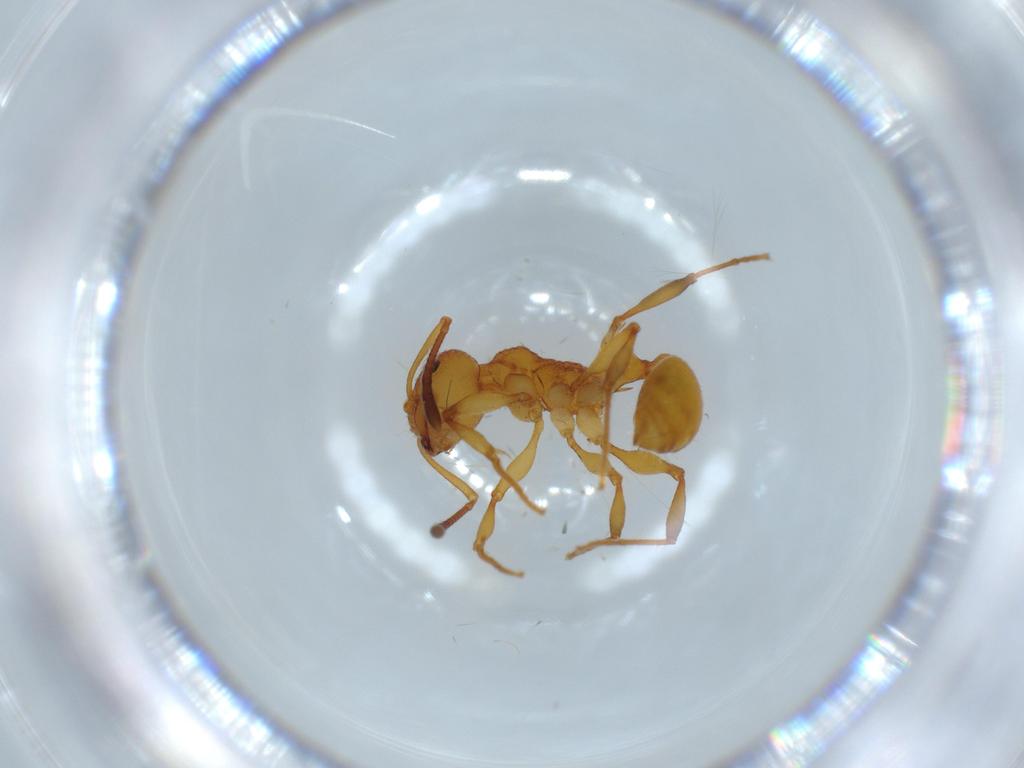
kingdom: Animalia
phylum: Arthropoda
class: Insecta
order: Hymenoptera
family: Formicidae
